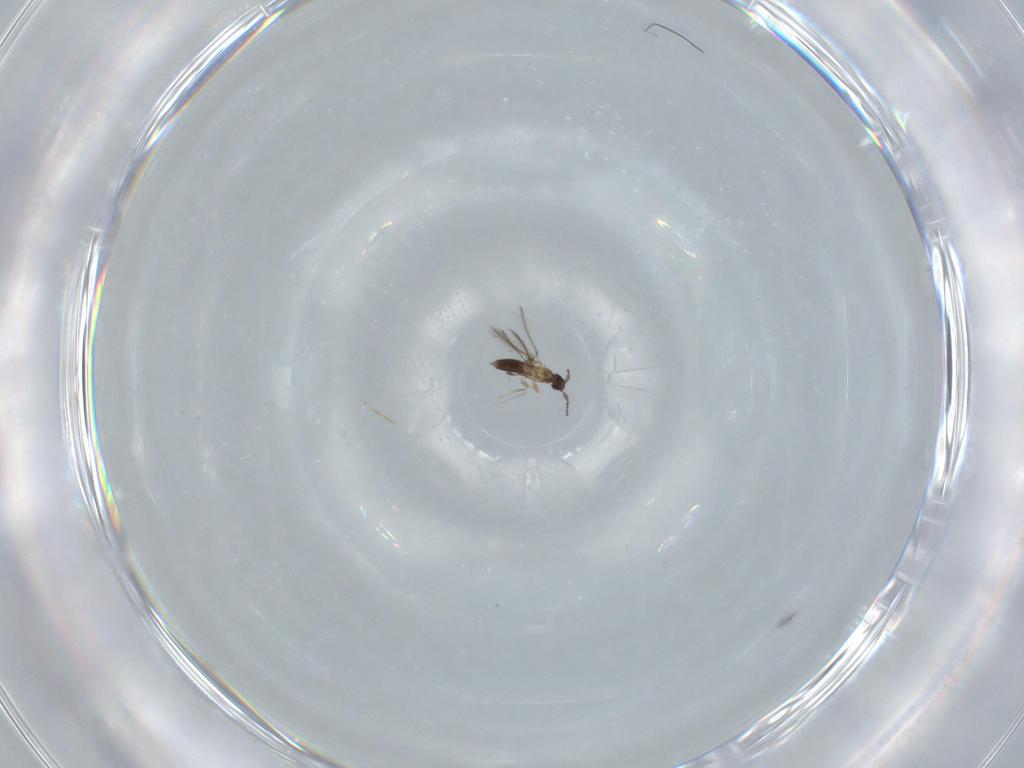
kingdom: Animalia
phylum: Arthropoda
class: Insecta
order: Hymenoptera
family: Mymaridae
